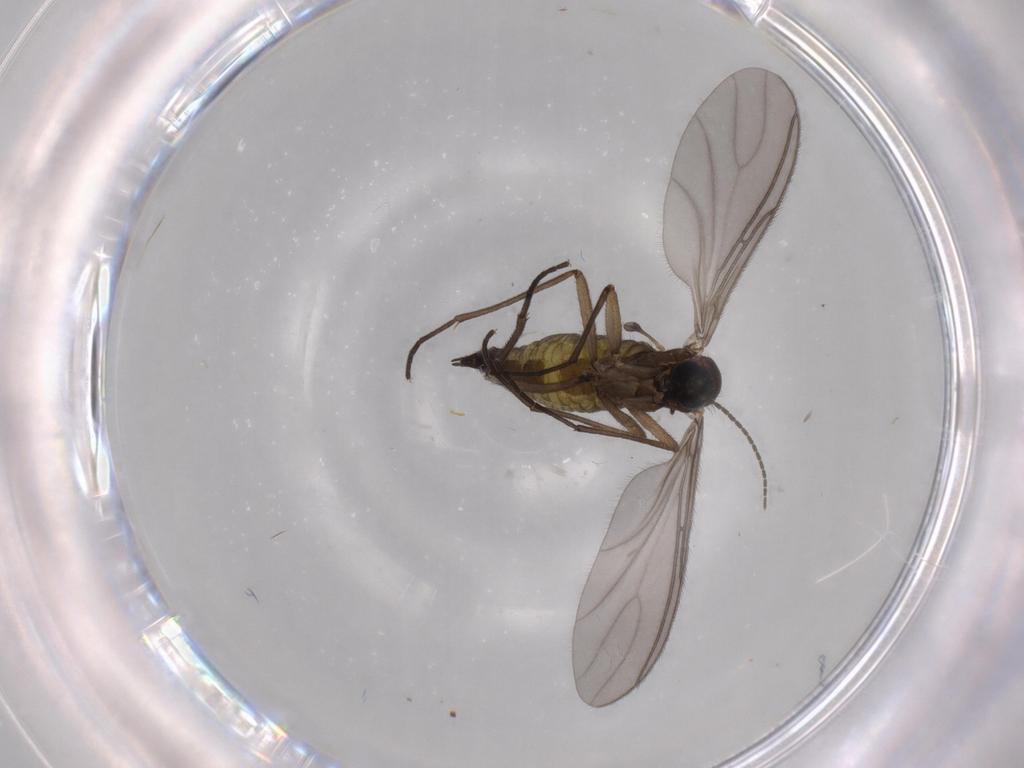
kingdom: Animalia
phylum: Arthropoda
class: Insecta
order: Diptera
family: Sciaridae
